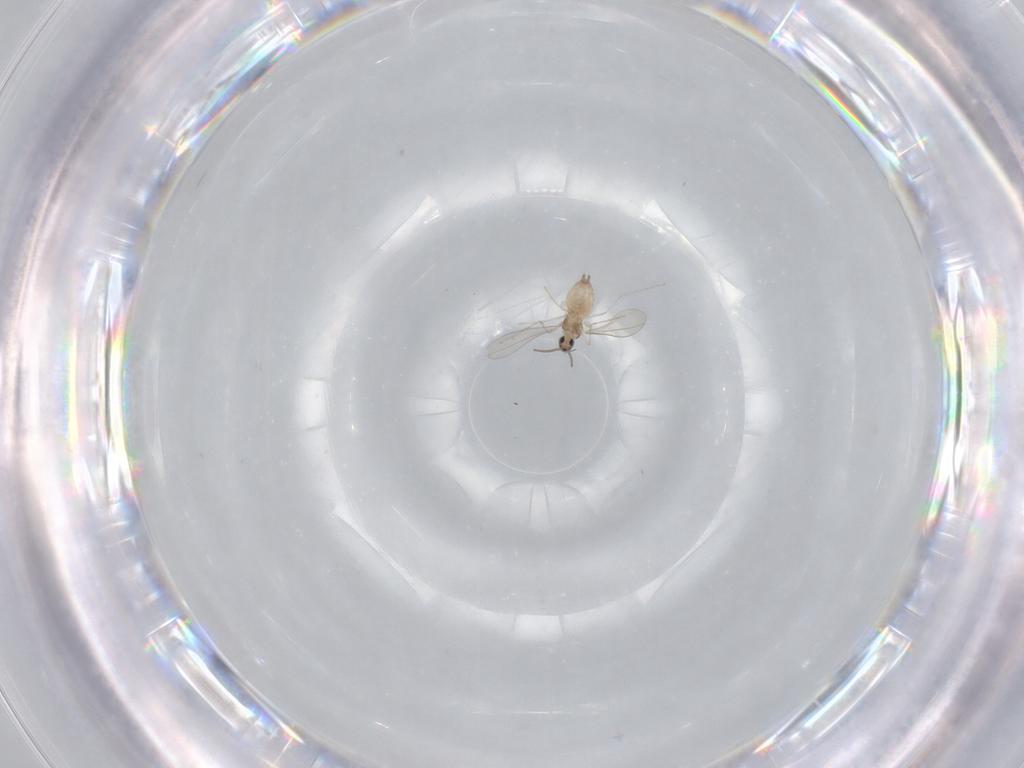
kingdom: Animalia
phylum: Arthropoda
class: Insecta
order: Diptera
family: Cecidomyiidae
